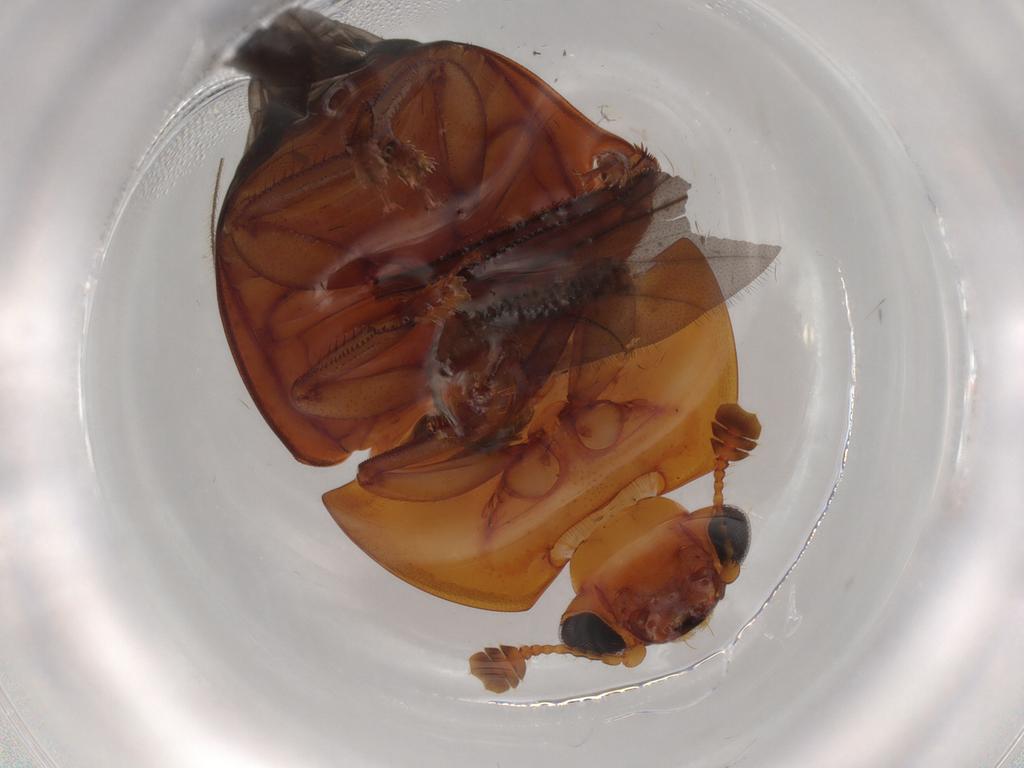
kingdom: Animalia
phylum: Arthropoda
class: Insecta
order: Coleoptera
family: Nitidulidae
